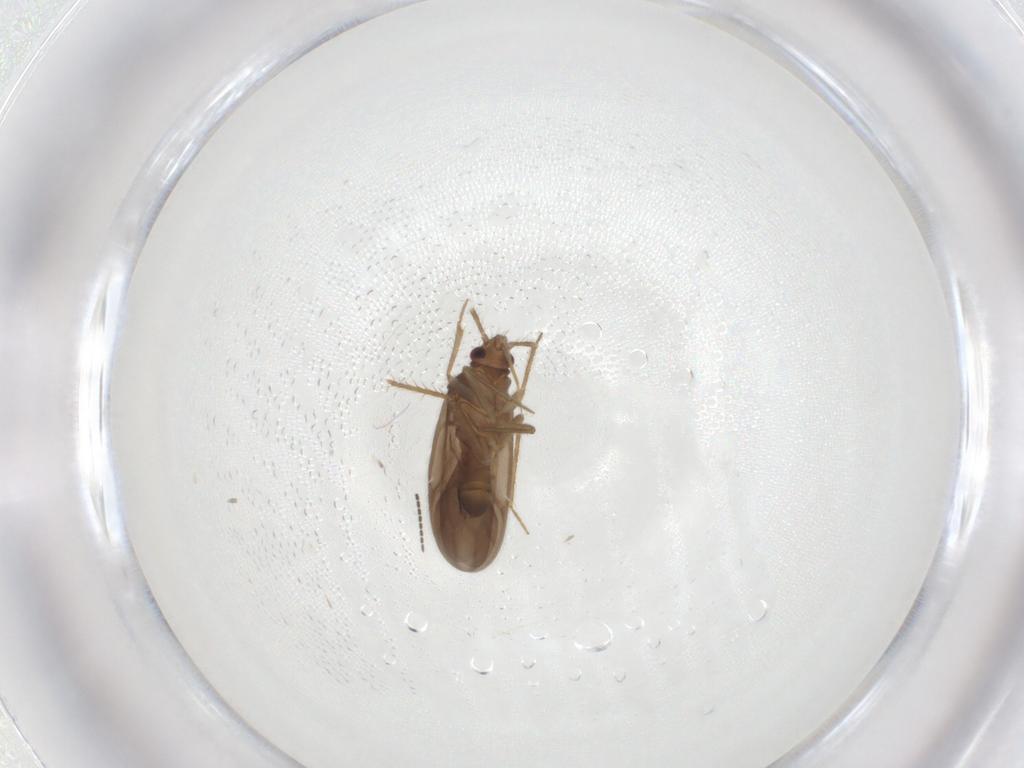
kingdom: Animalia
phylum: Arthropoda
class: Insecta
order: Hemiptera
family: Ceratocombidae
